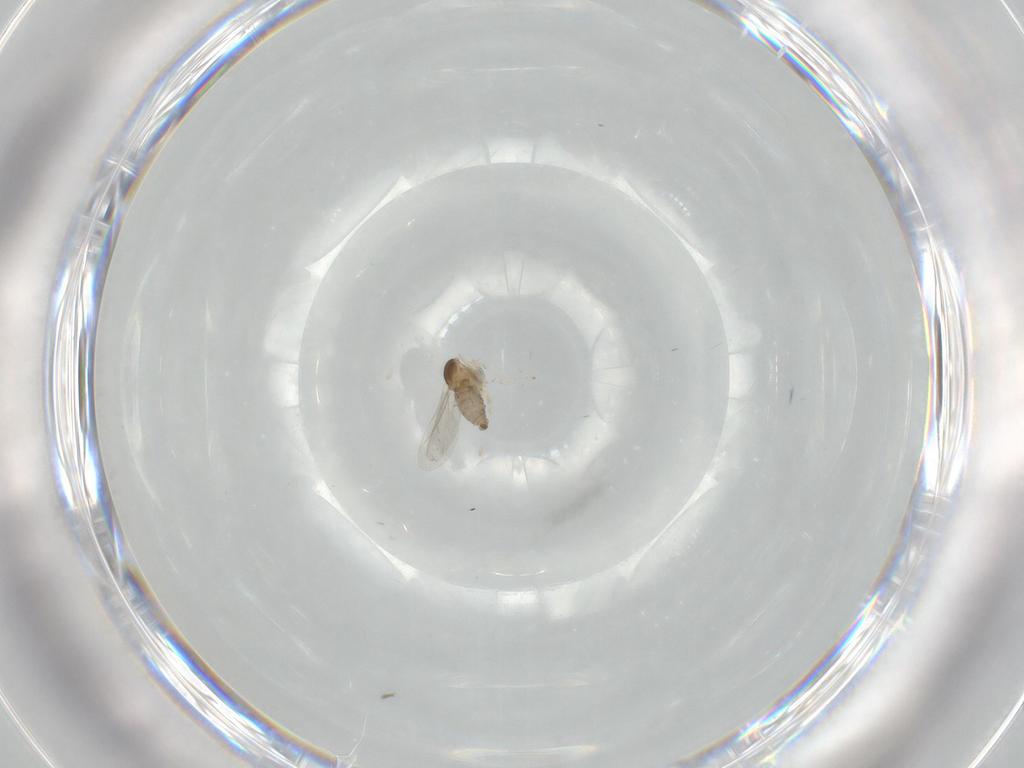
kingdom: Animalia
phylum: Arthropoda
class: Insecta
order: Diptera
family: Cecidomyiidae
